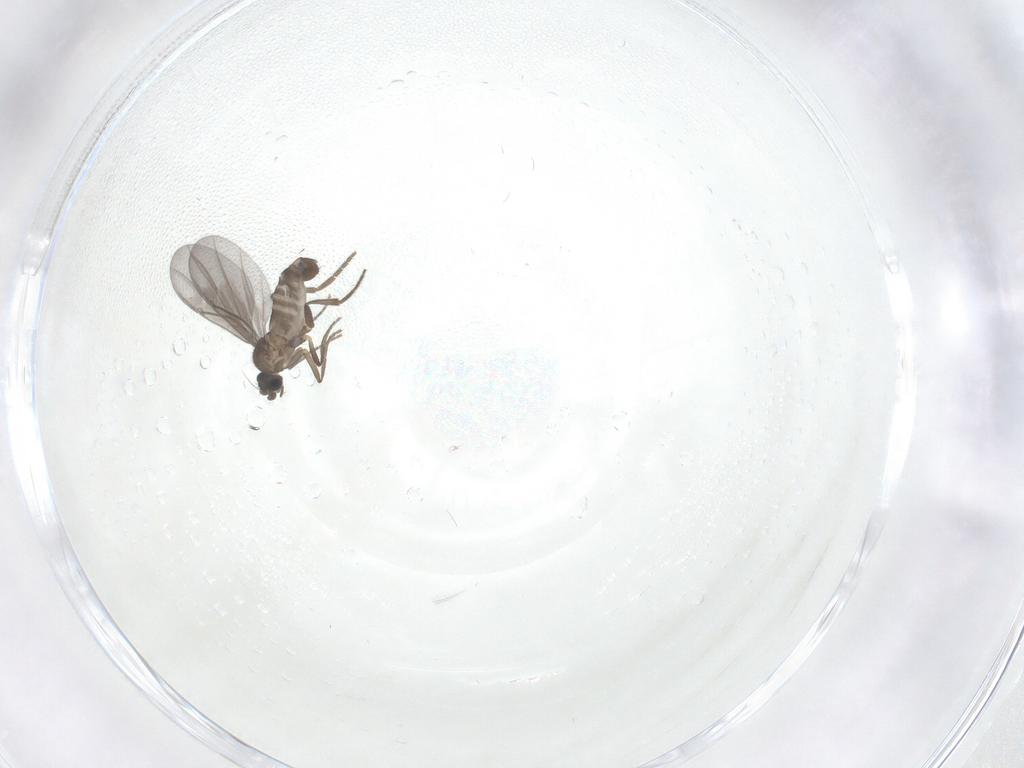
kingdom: Animalia
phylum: Arthropoda
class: Insecta
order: Diptera
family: Phoridae
